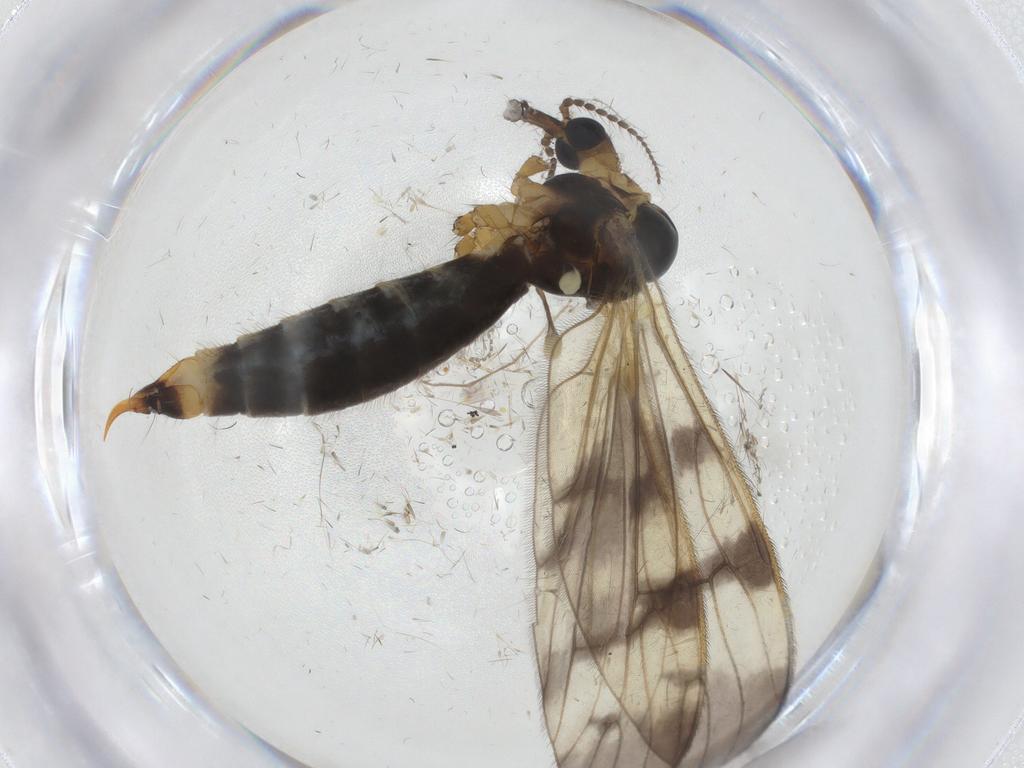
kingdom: Animalia
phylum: Arthropoda
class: Insecta
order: Diptera
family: Limoniidae
